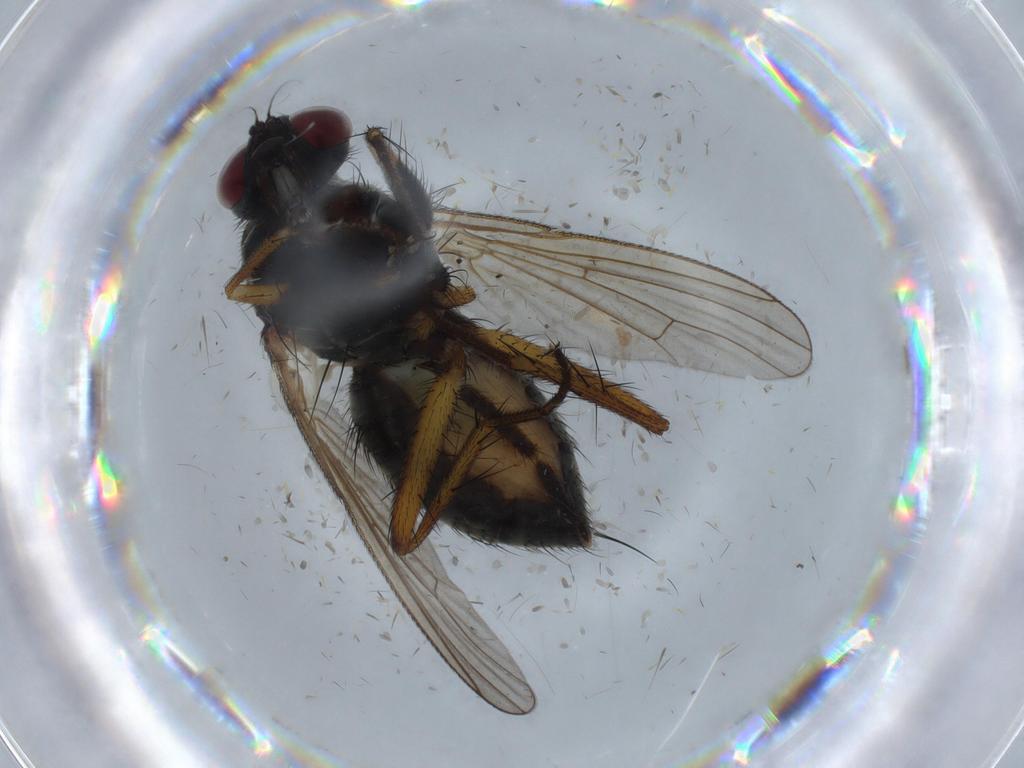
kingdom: Animalia
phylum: Arthropoda
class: Insecta
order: Diptera
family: Muscidae
